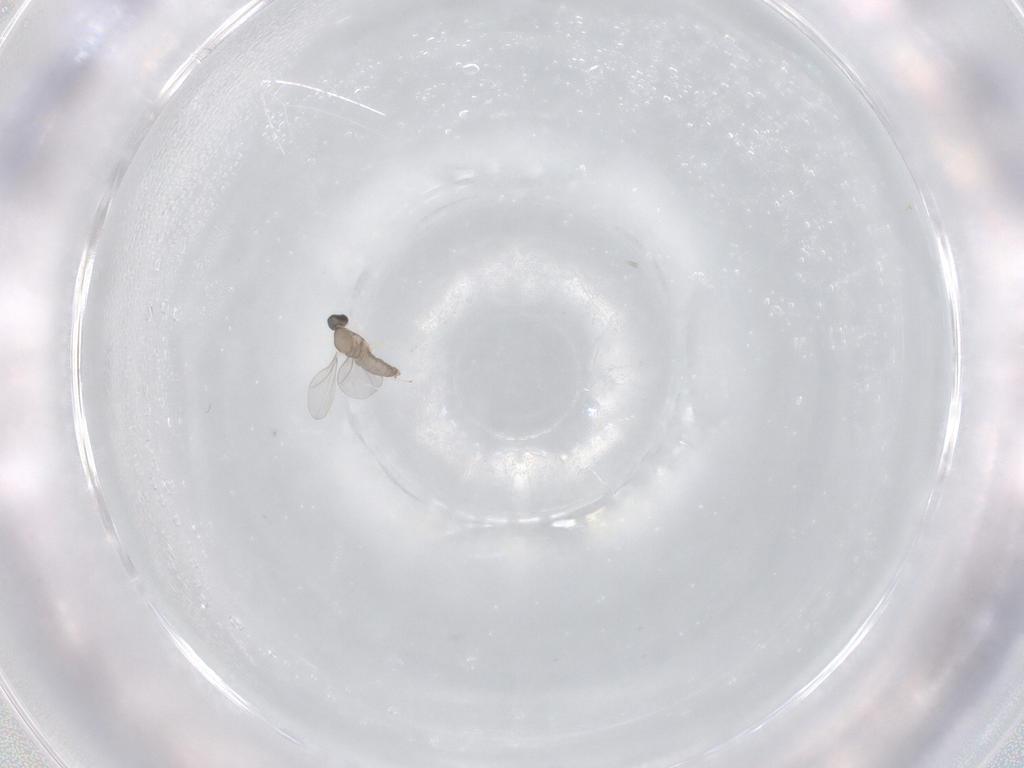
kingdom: Animalia
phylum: Arthropoda
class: Insecta
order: Diptera
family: Cecidomyiidae
